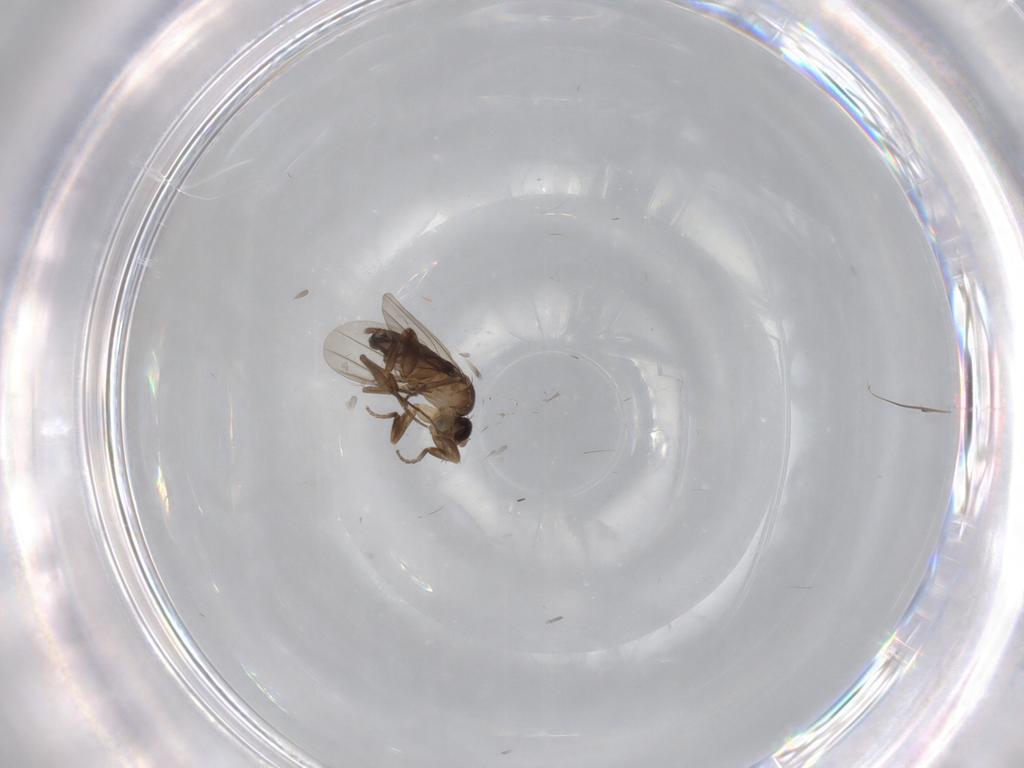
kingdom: Animalia
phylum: Arthropoda
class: Insecta
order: Diptera
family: Phoridae
